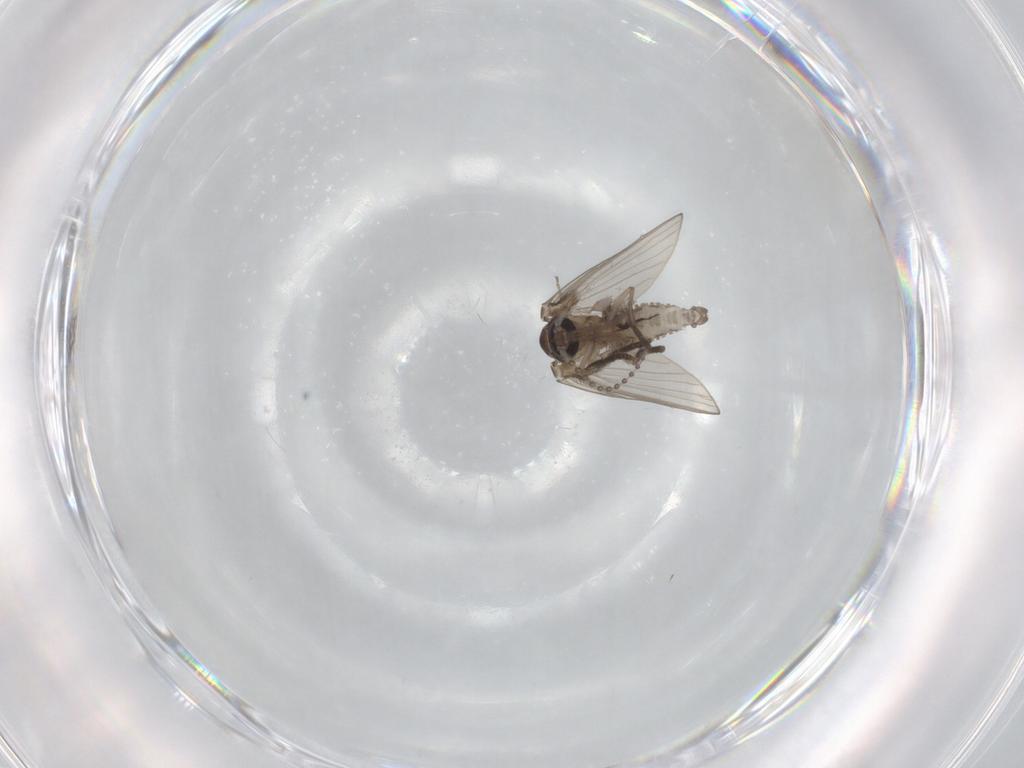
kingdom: Animalia
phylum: Arthropoda
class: Insecta
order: Diptera
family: Psychodidae
